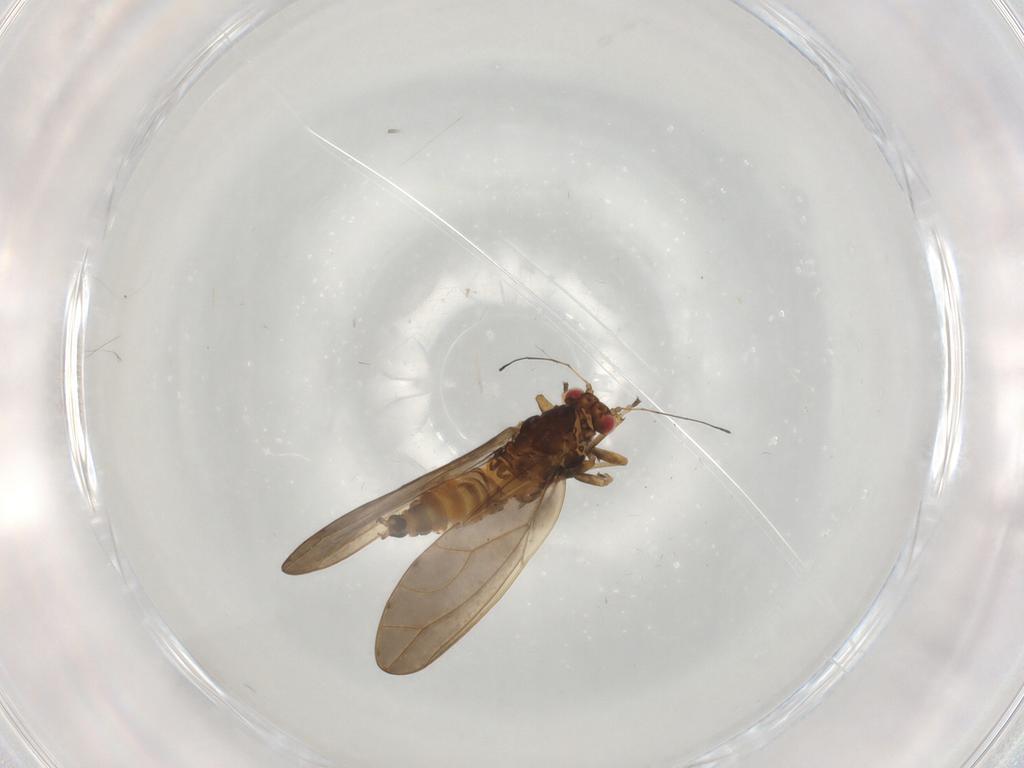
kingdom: Animalia
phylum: Arthropoda
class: Insecta
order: Hemiptera
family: Triozidae
